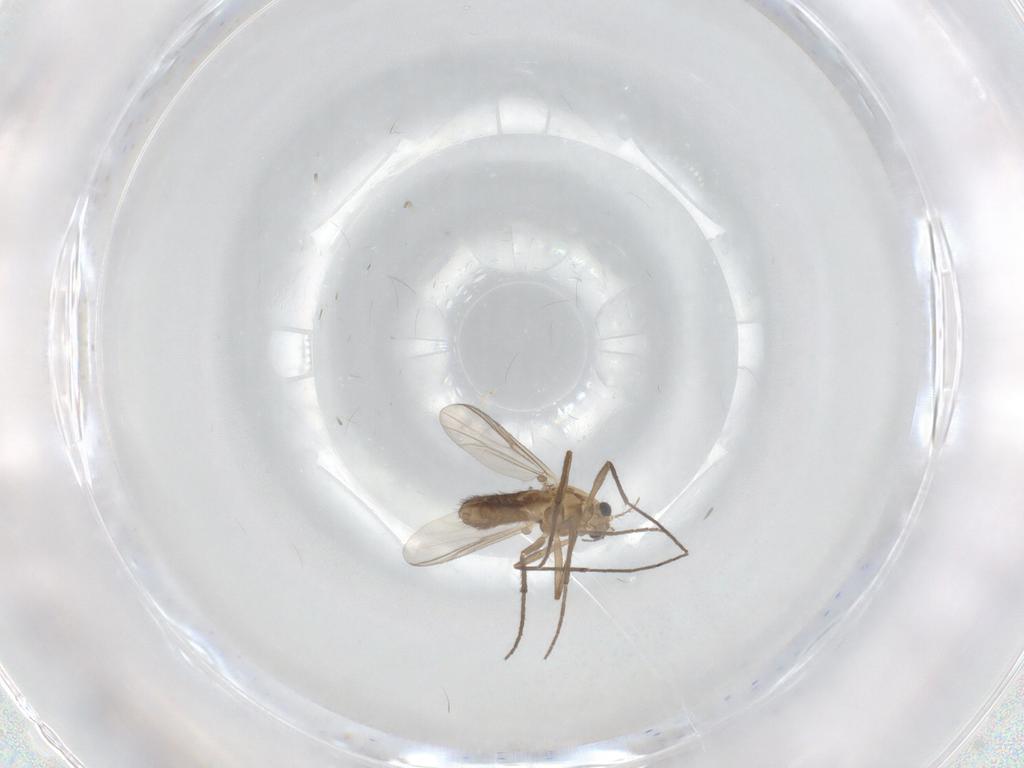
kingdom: Animalia
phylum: Arthropoda
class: Insecta
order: Diptera
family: Chironomidae
